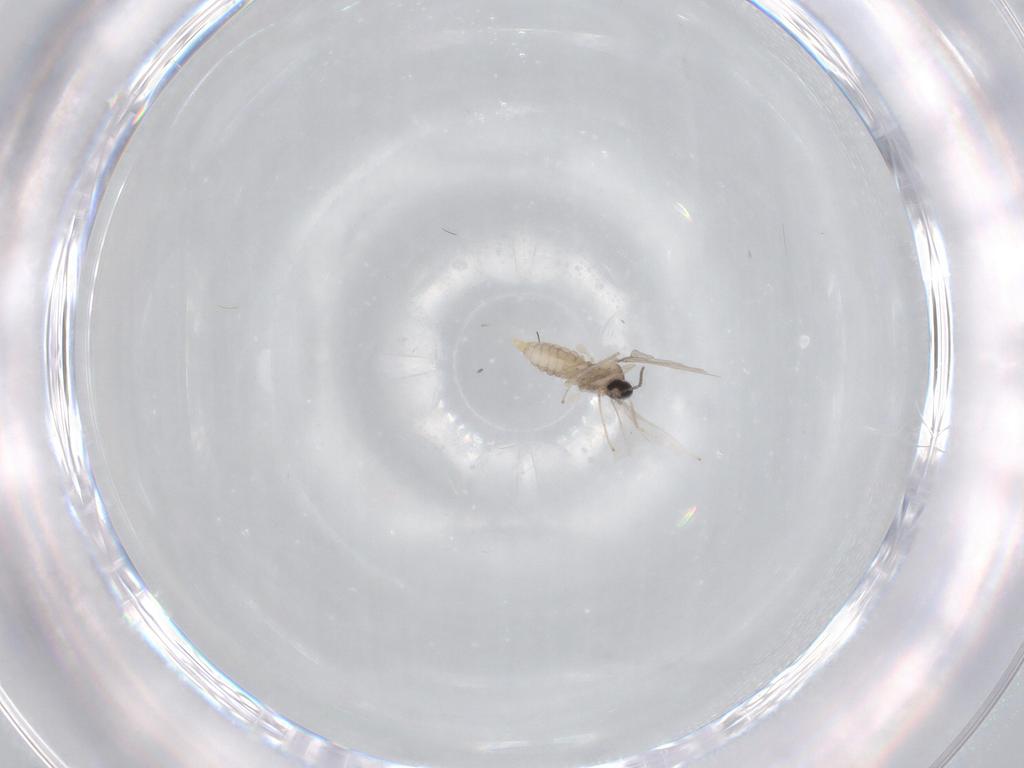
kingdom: Animalia
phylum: Arthropoda
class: Insecta
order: Diptera
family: Cecidomyiidae
